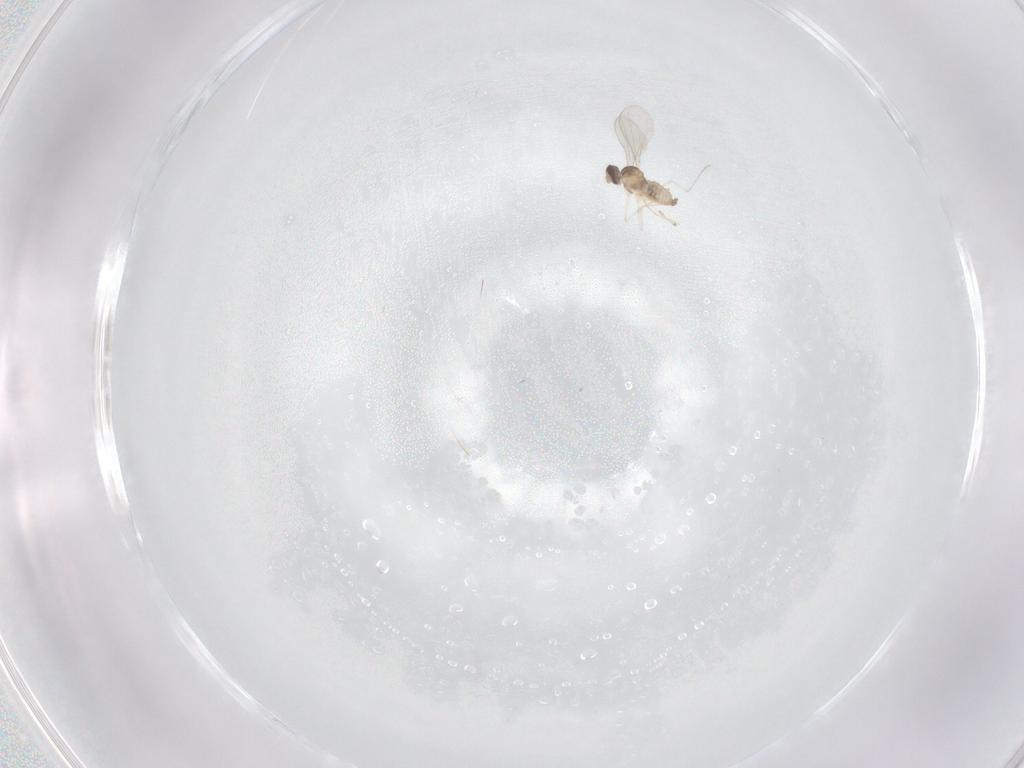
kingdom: Animalia
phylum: Arthropoda
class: Insecta
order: Diptera
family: Cecidomyiidae
